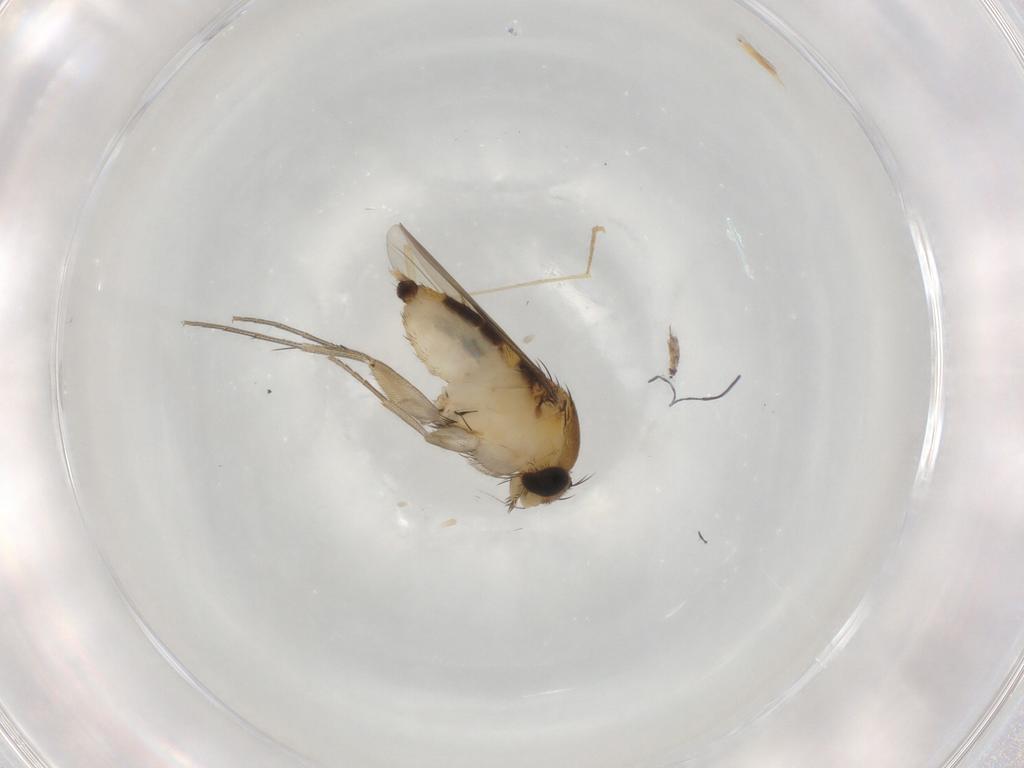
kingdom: Animalia
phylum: Arthropoda
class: Insecta
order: Diptera
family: Phoridae
